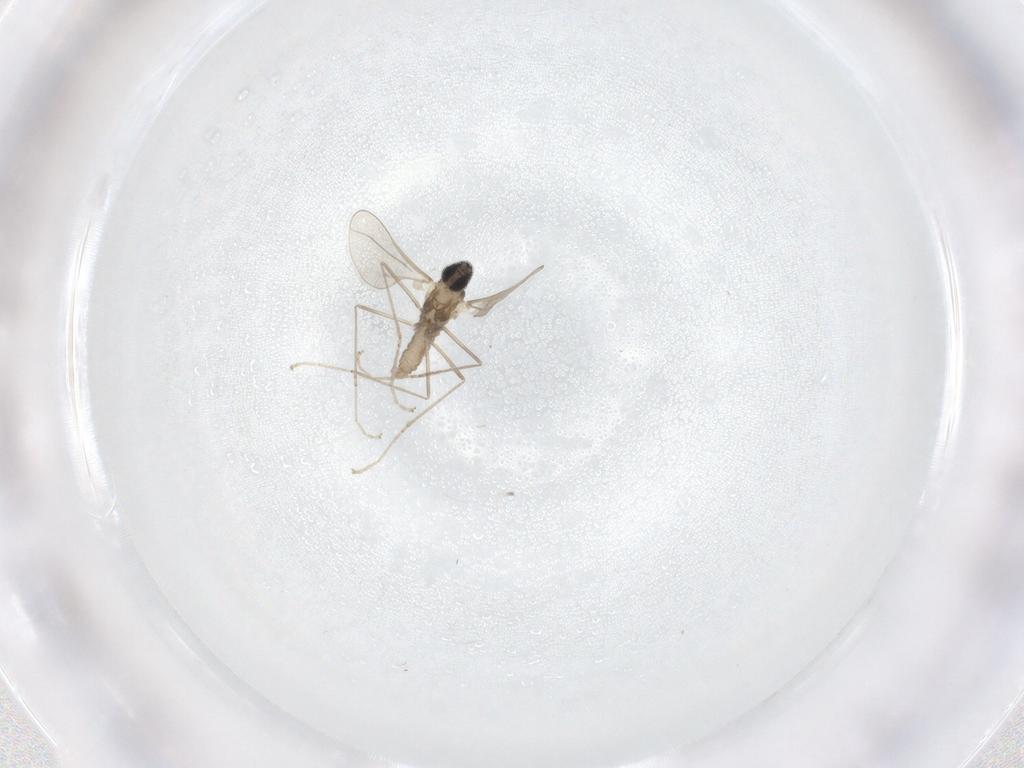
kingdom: Animalia
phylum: Arthropoda
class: Insecta
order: Diptera
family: Cecidomyiidae
